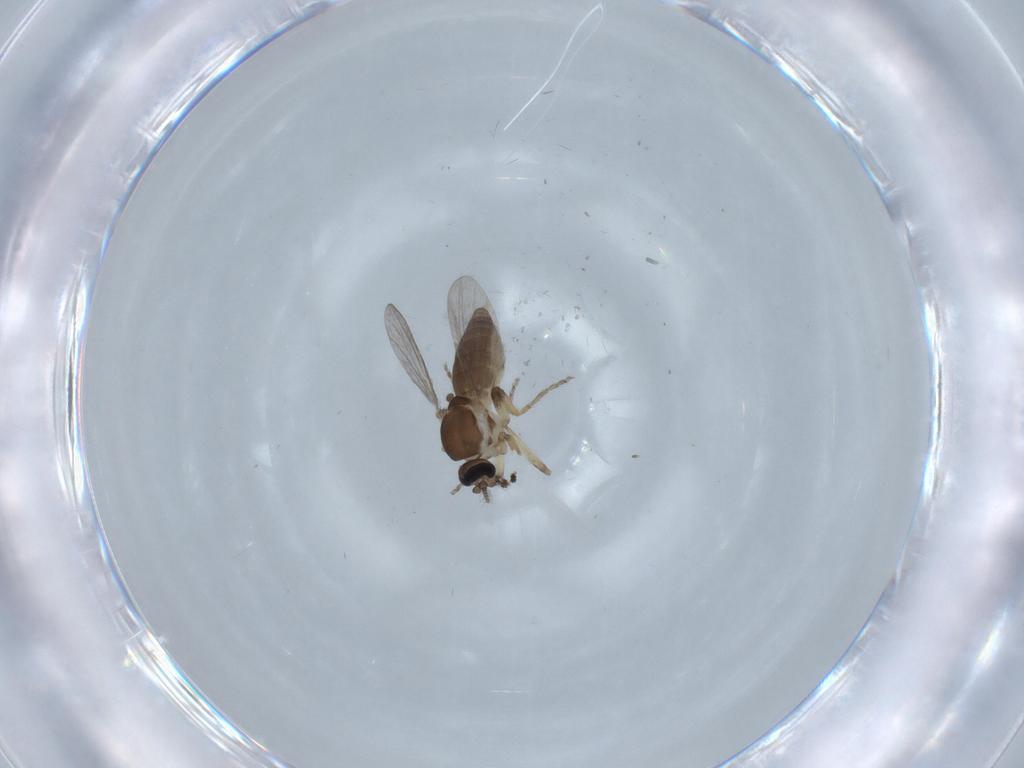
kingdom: Animalia
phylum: Arthropoda
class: Insecta
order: Diptera
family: Ceratopogonidae
